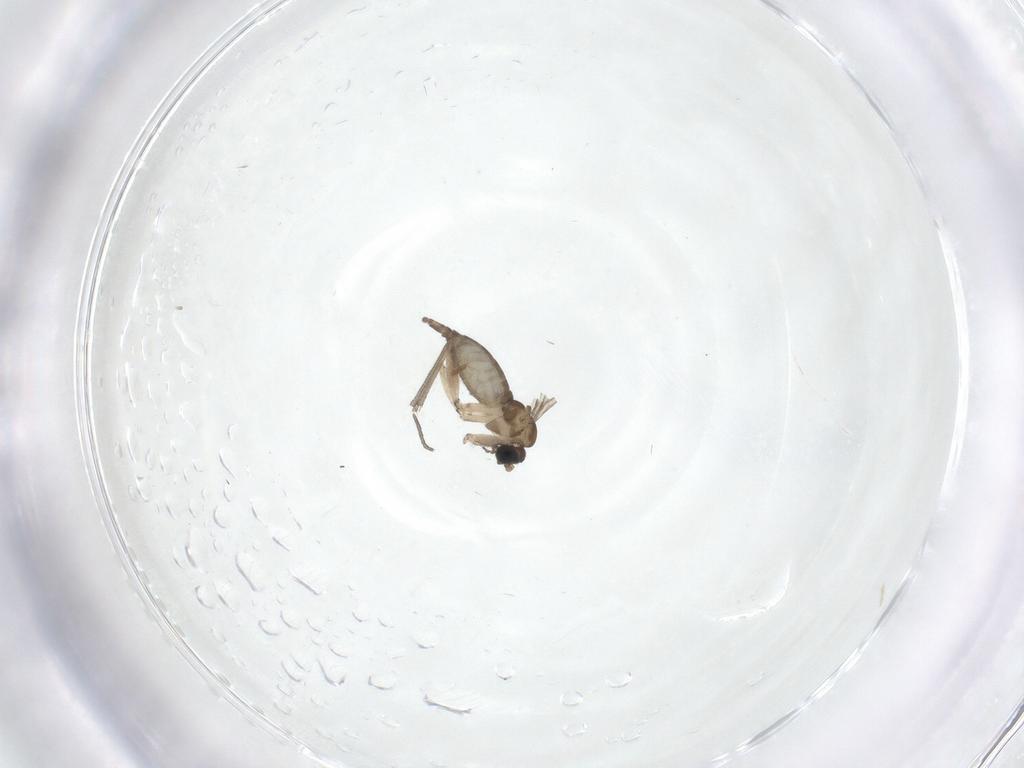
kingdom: Animalia
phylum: Arthropoda
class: Insecta
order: Diptera
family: Sciaridae
